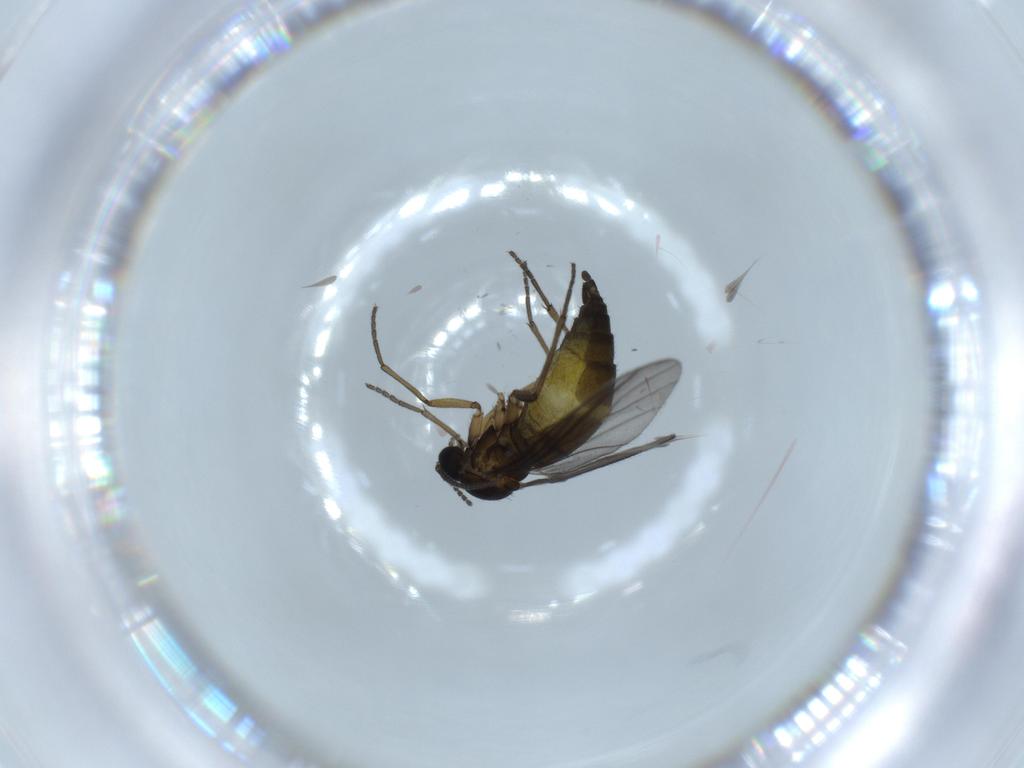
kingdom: Animalia
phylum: Arthropoda
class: Insecta
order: Diptera
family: Sciaridae
